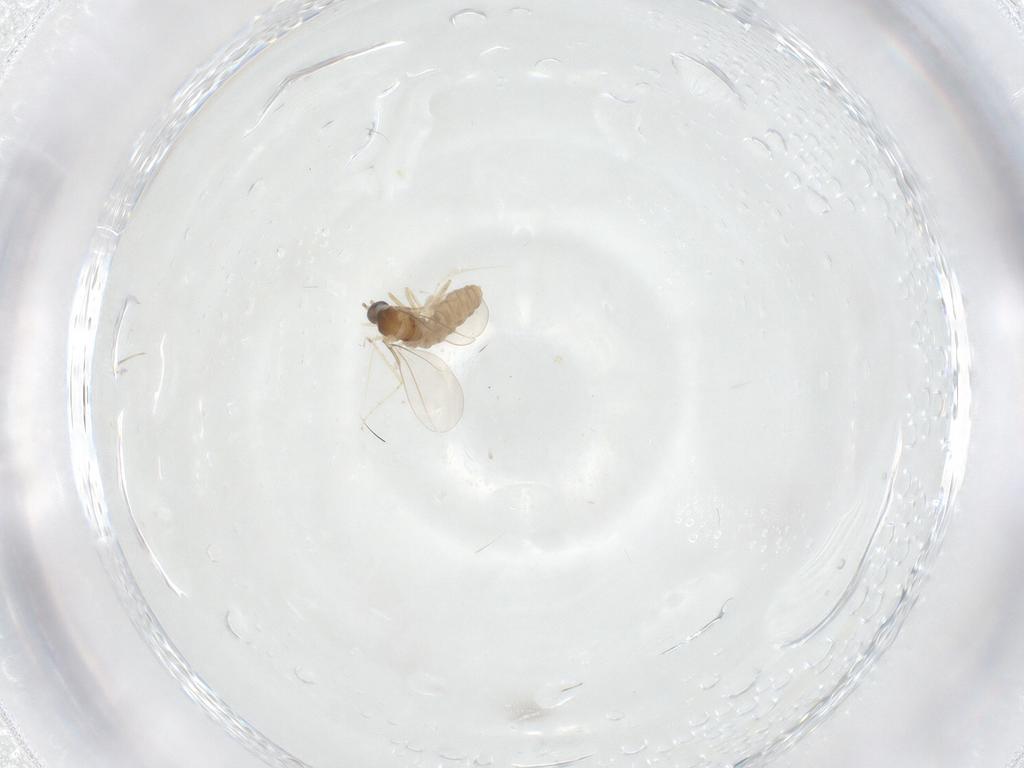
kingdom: Animalia
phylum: Arthropoda
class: Insecta
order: Diptera
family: Cecidomyiidae
